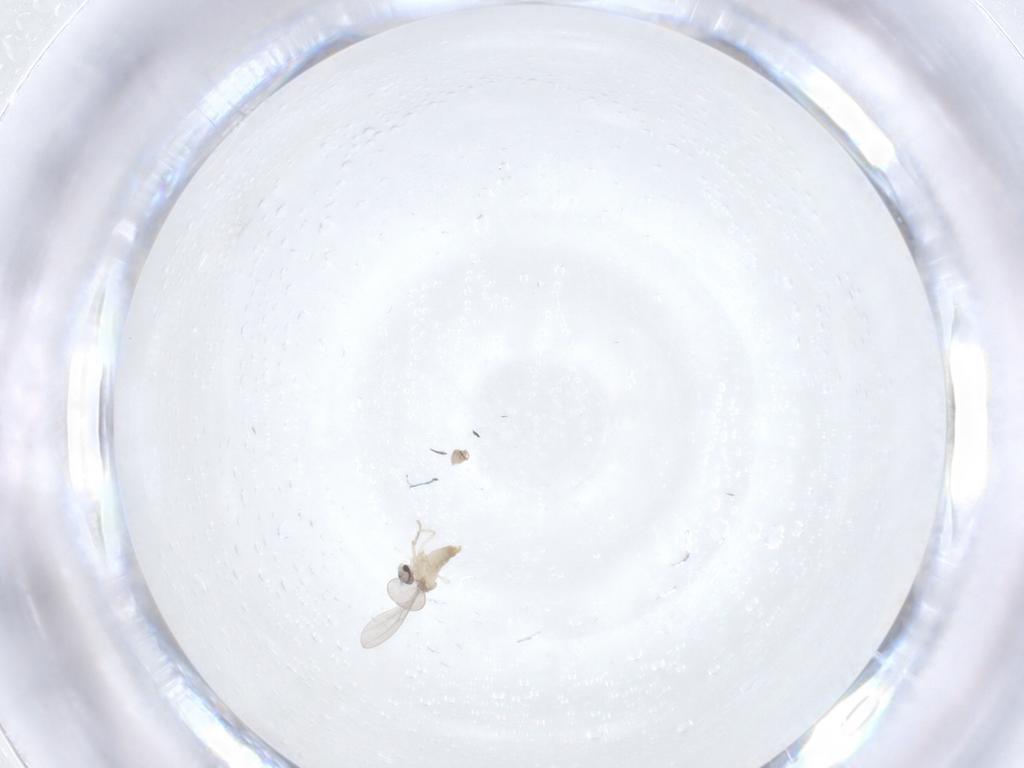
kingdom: Animalia
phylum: Arthropoda
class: Insecta
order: Diptera
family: Chironomidae
